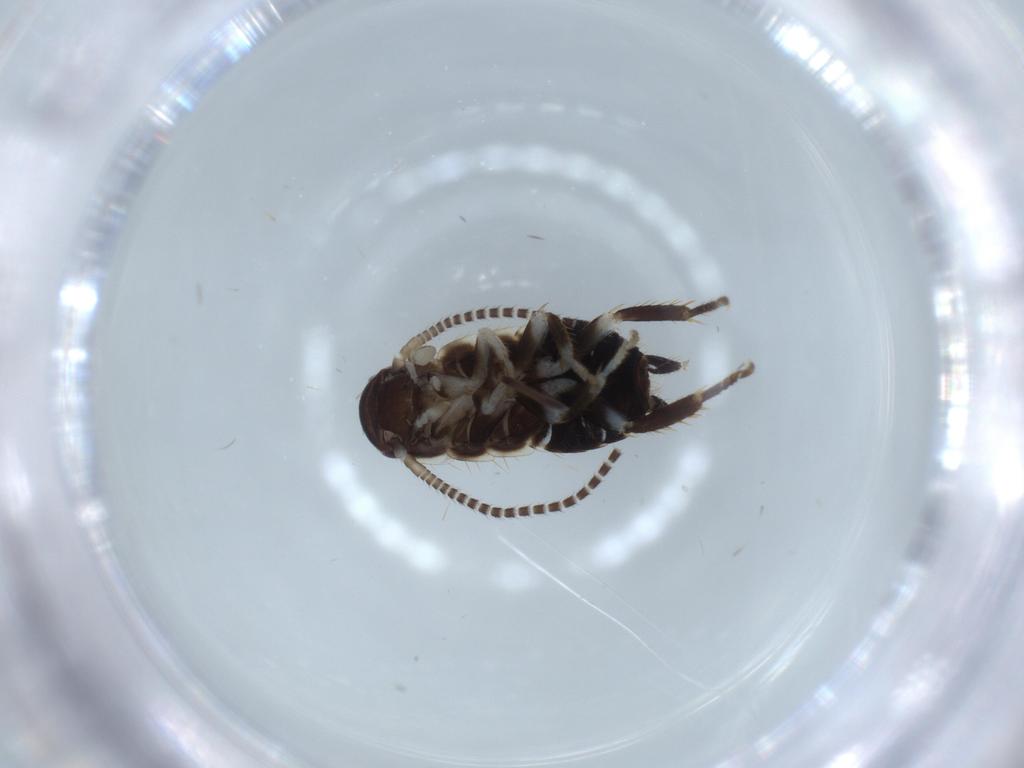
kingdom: Animalia
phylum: Arthropoda
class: Insecta
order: Blattodea
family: Ectobiidae
